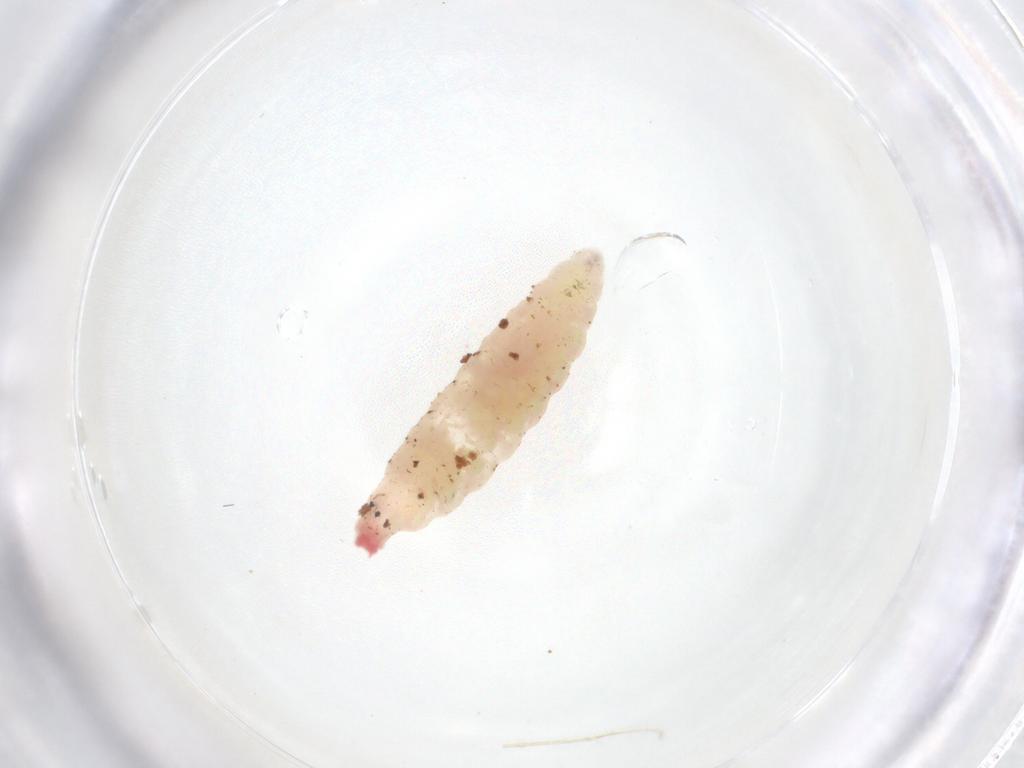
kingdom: Animalia
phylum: Arthropoda
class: Insecta
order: Diptera
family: Cecidomyiidae
